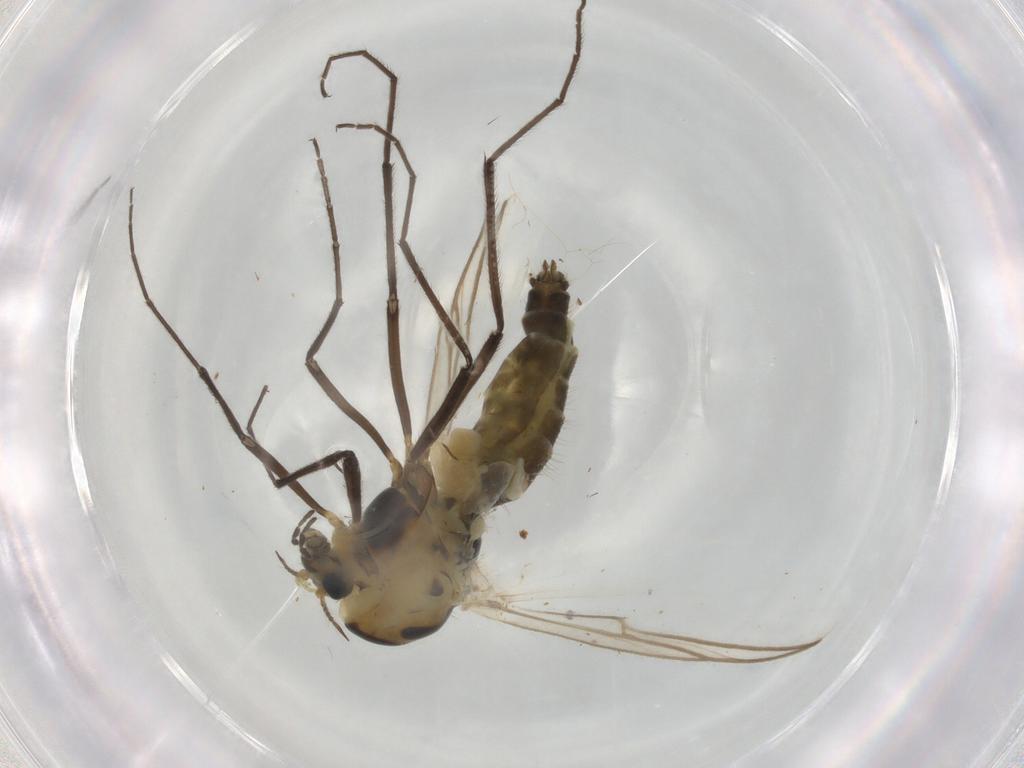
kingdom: Animalia
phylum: Arthropoda
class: Insecta
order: Diptera
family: Chironomidae
